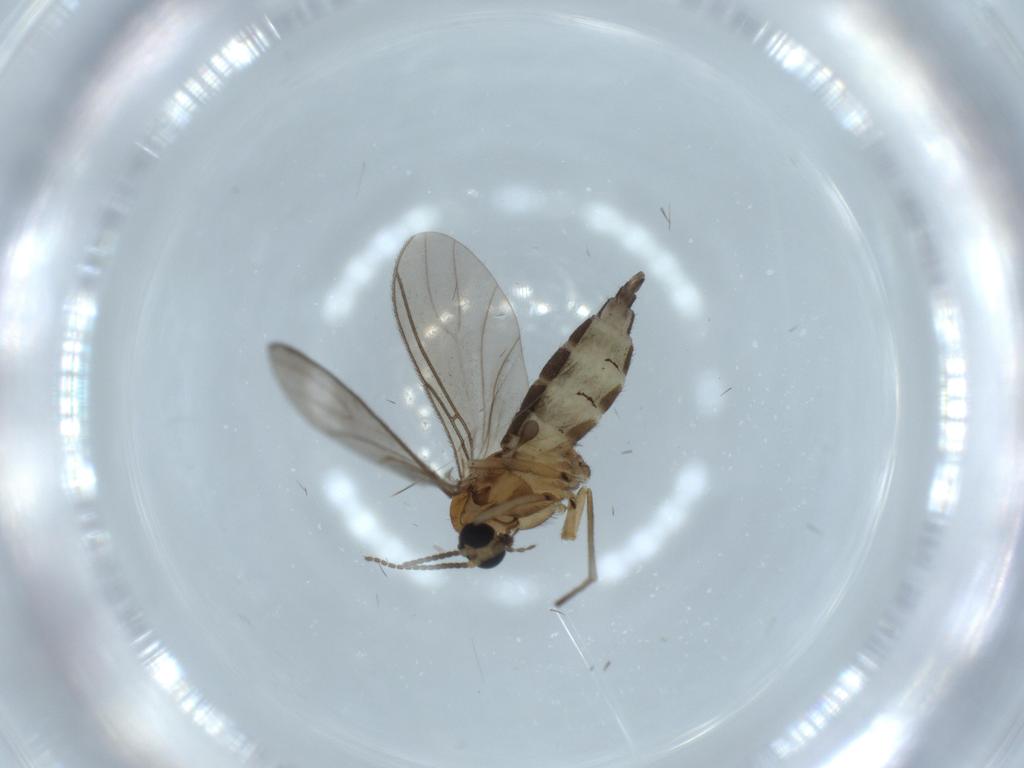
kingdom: Animalia
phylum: Arthropoda
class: Insecta
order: Diptera
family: Sciaridae
